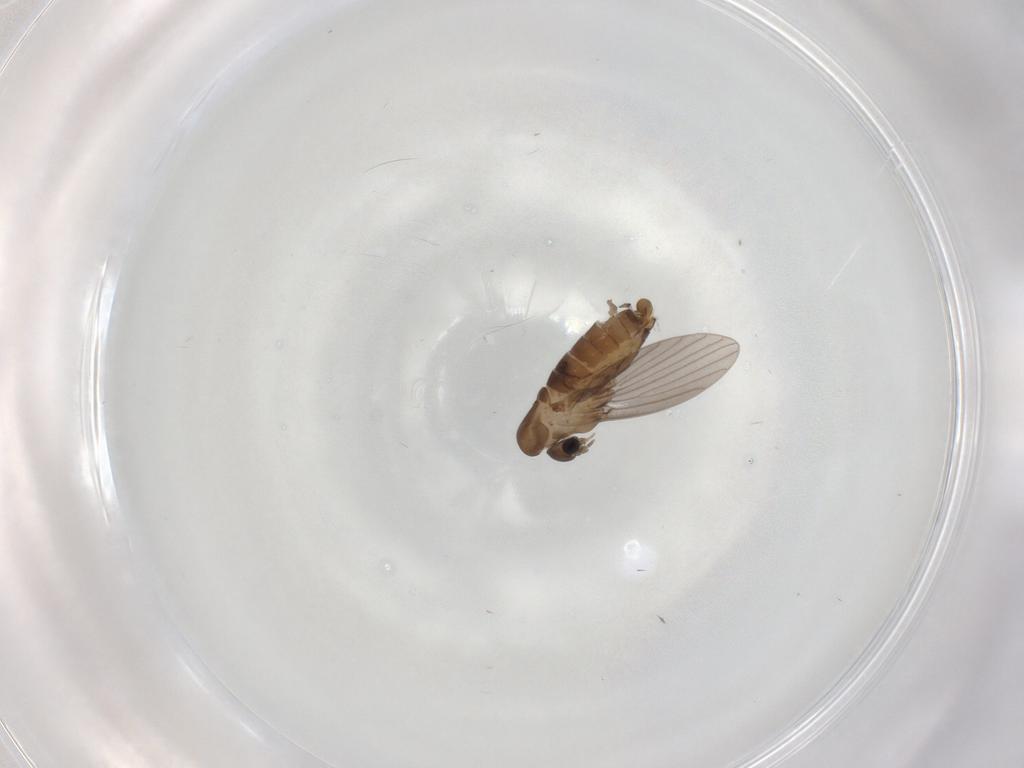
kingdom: Animalia
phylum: Arthropoda
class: Insecta
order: Diptera
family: Psychodidae
